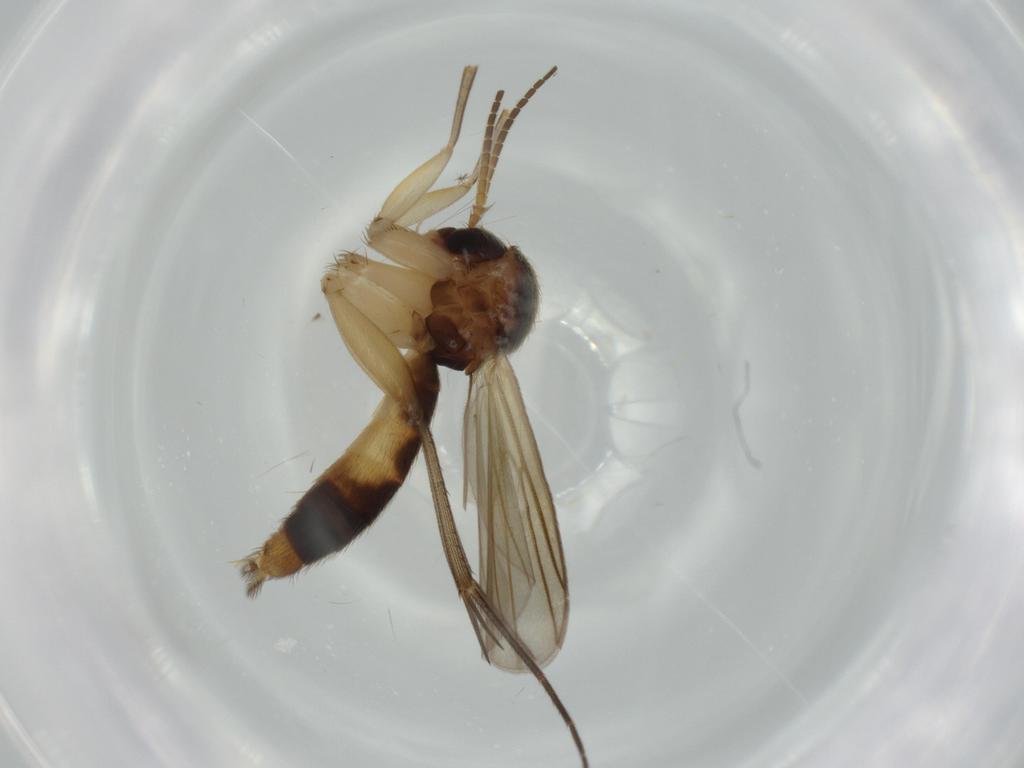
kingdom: Animalia
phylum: Arthropoda
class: Insecta
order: Diptera
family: Mycetophilidae
